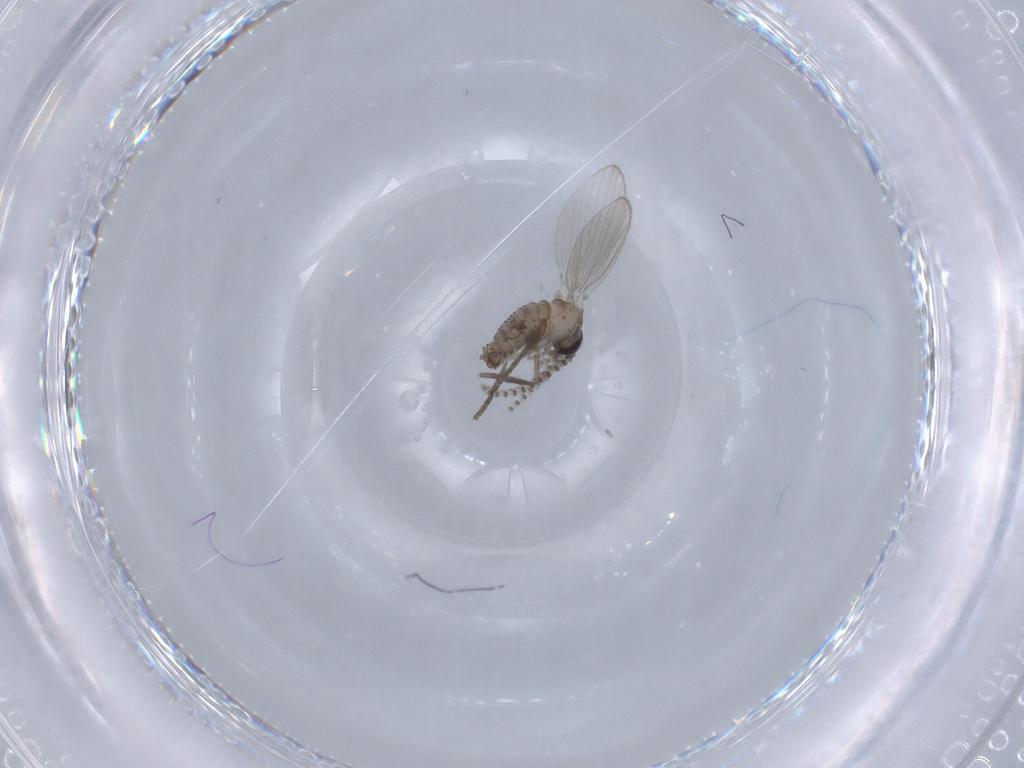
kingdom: Animalia
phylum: Arthropoda
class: Insecta
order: Diptera
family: Psychodidae
